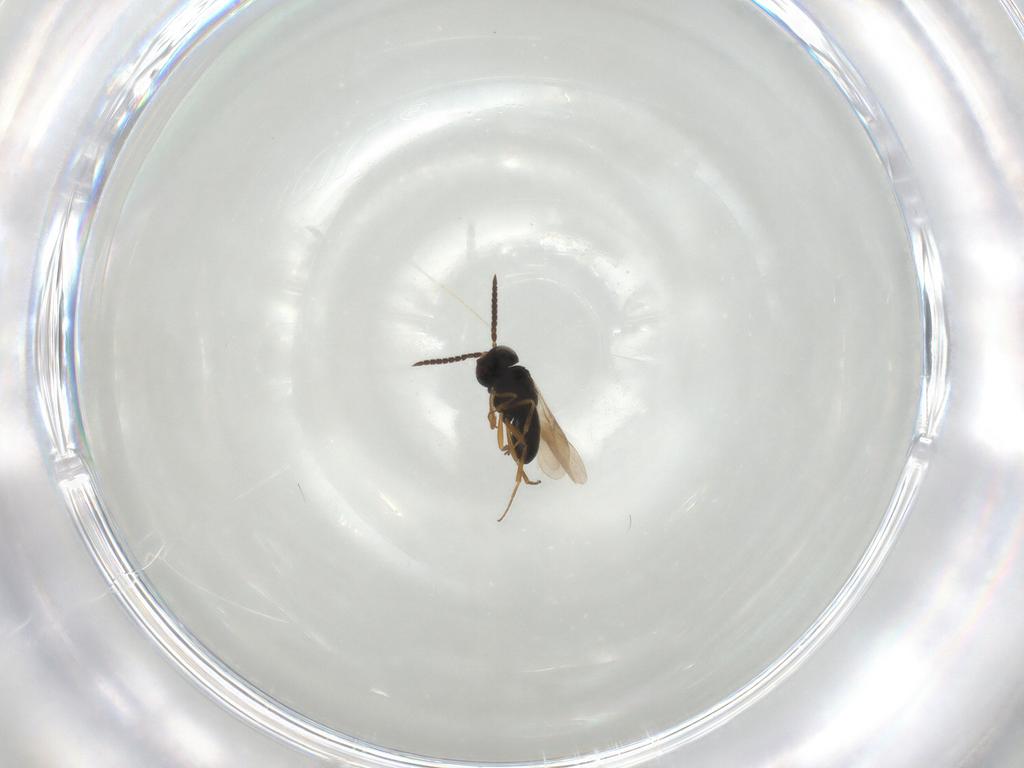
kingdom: Animalia
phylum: Arthropoda
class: Insecta
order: Hymenoptera
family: Scelionidae
